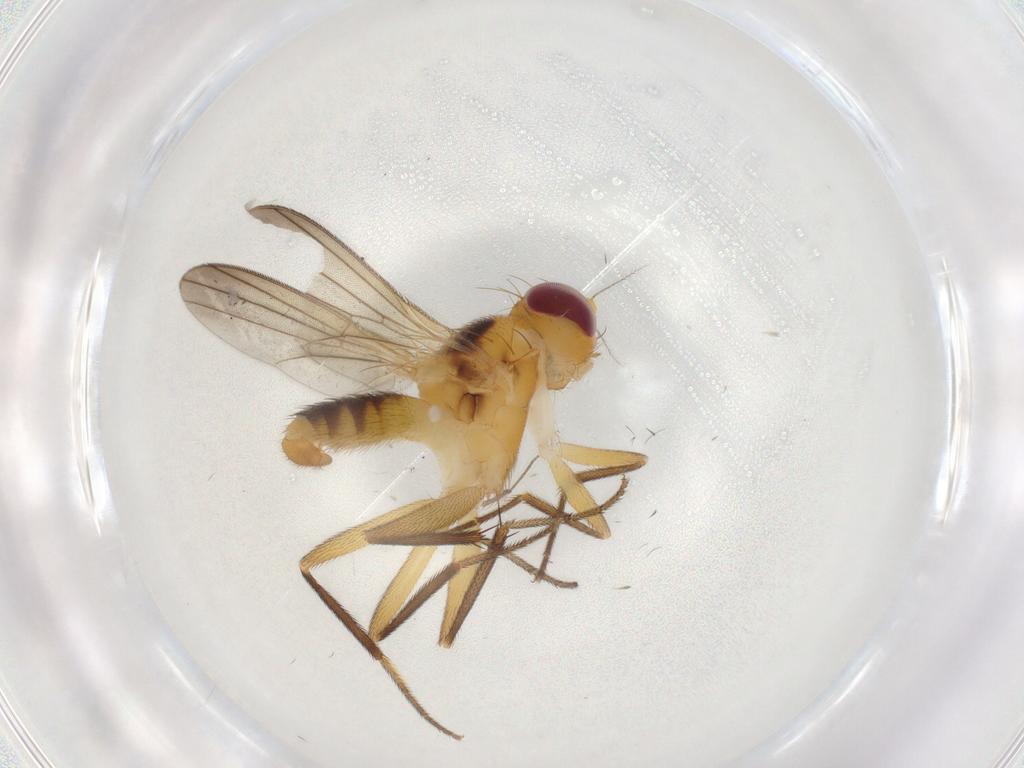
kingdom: Animalia
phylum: Arthropoda
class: Insecta
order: Diptera
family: Clusiidae
